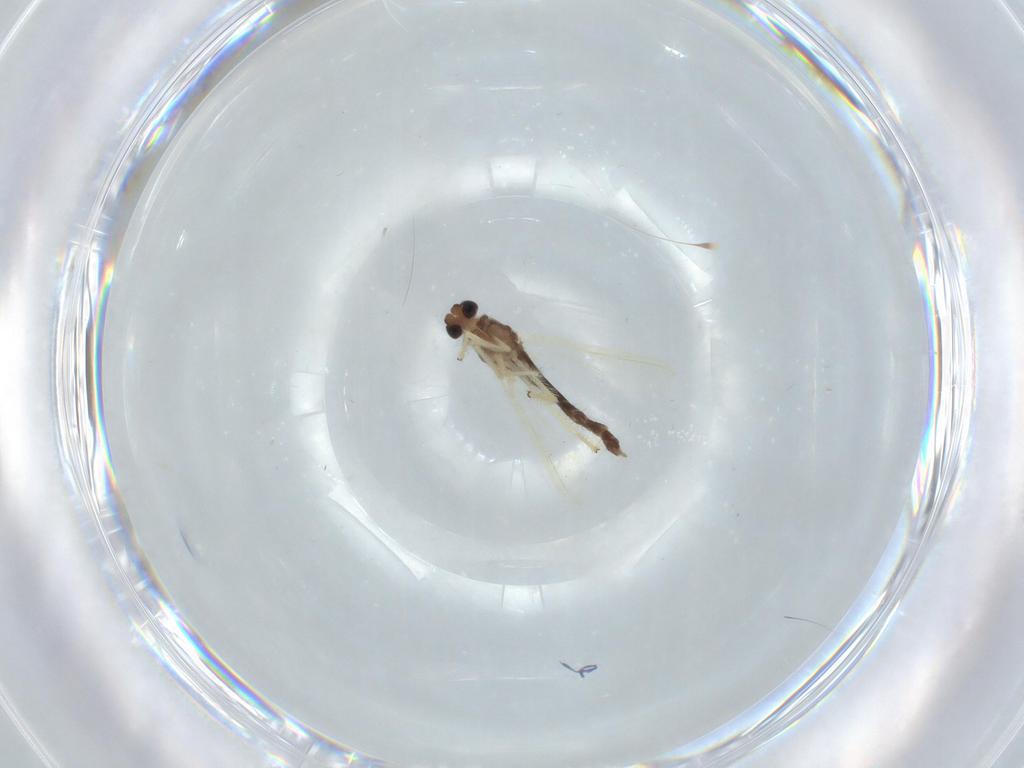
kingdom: Animalia
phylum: Arthropoda
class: Insecta
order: Diptera
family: Chironomidae
